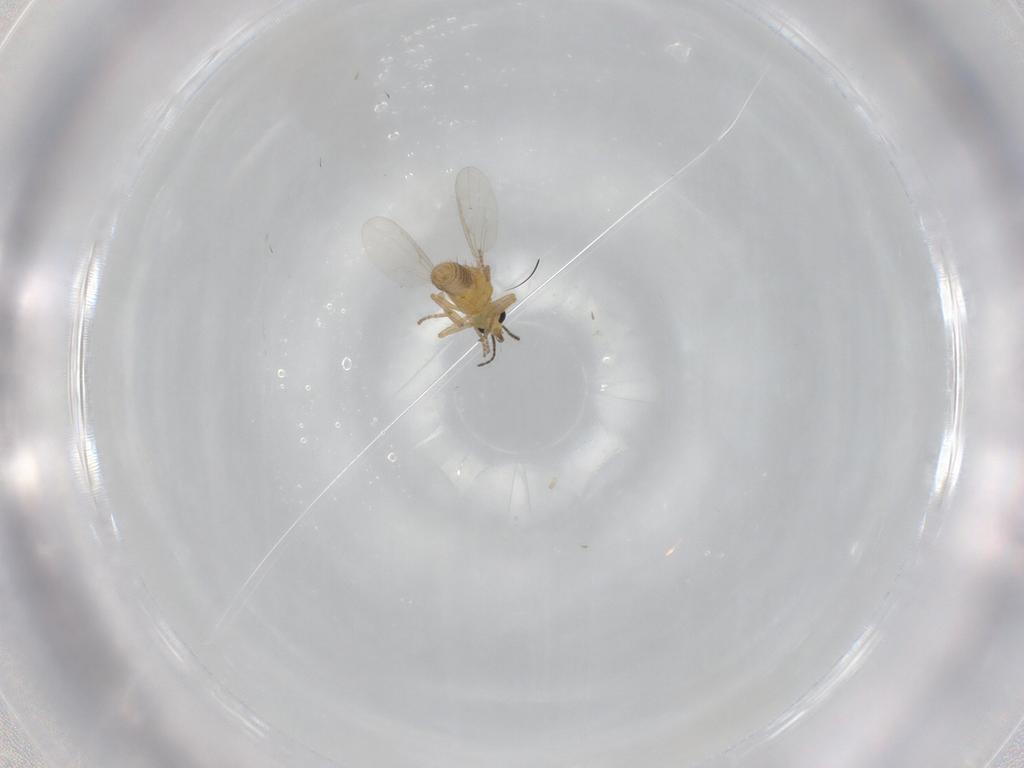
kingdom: Animalia
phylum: Arthropoda
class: Insecta
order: Diptera
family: Ceratopogonidae
